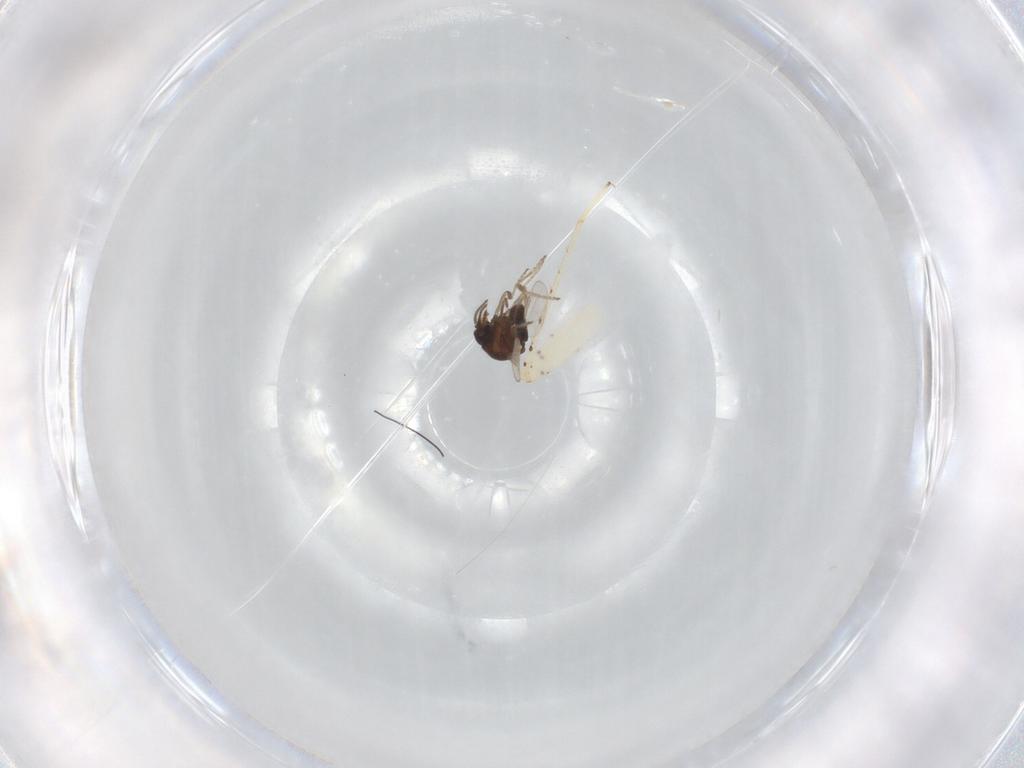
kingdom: Animalia
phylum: Arthropoda
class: Insecta
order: Diptera
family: Ceratopogonidae
